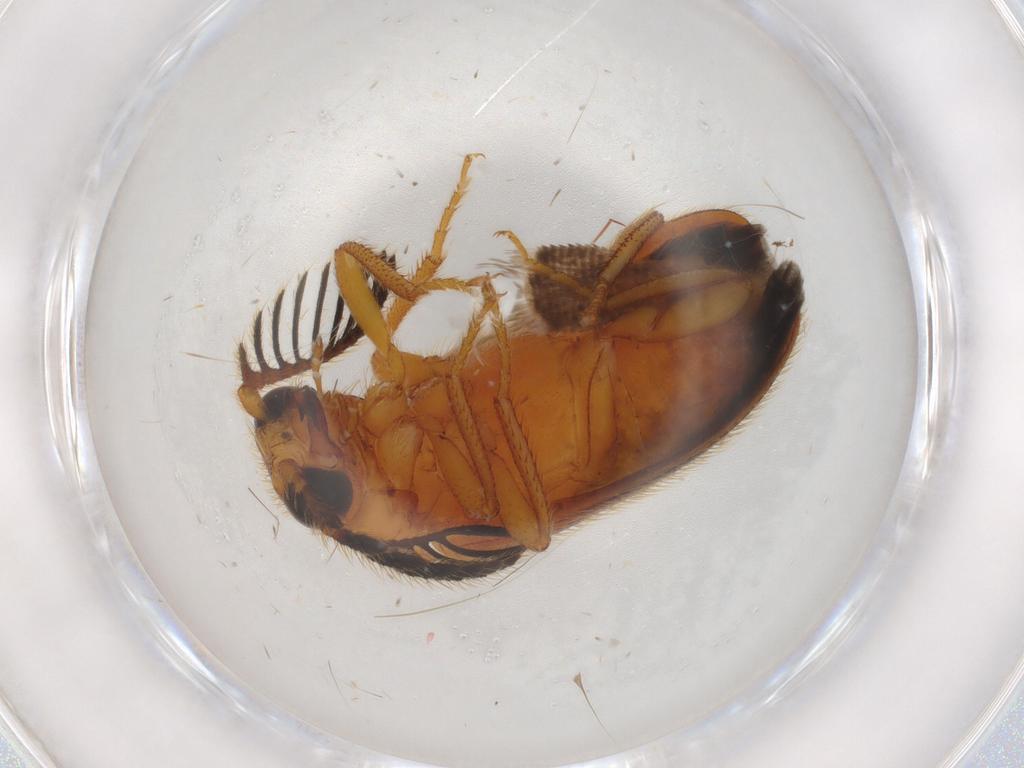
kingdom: Animalia
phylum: Arthropoda
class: Insecta
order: Coleoptera
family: Elateridae
